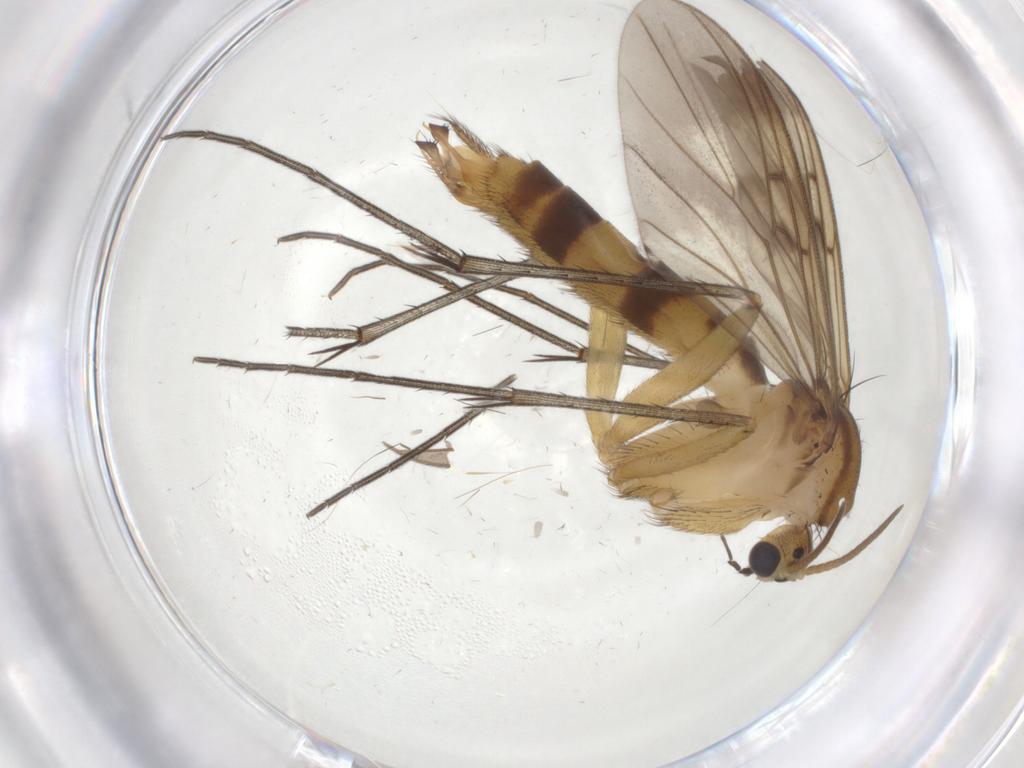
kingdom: Animalia
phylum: Arthropoda
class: Insecta
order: Diptera
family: Mycetophilidae
